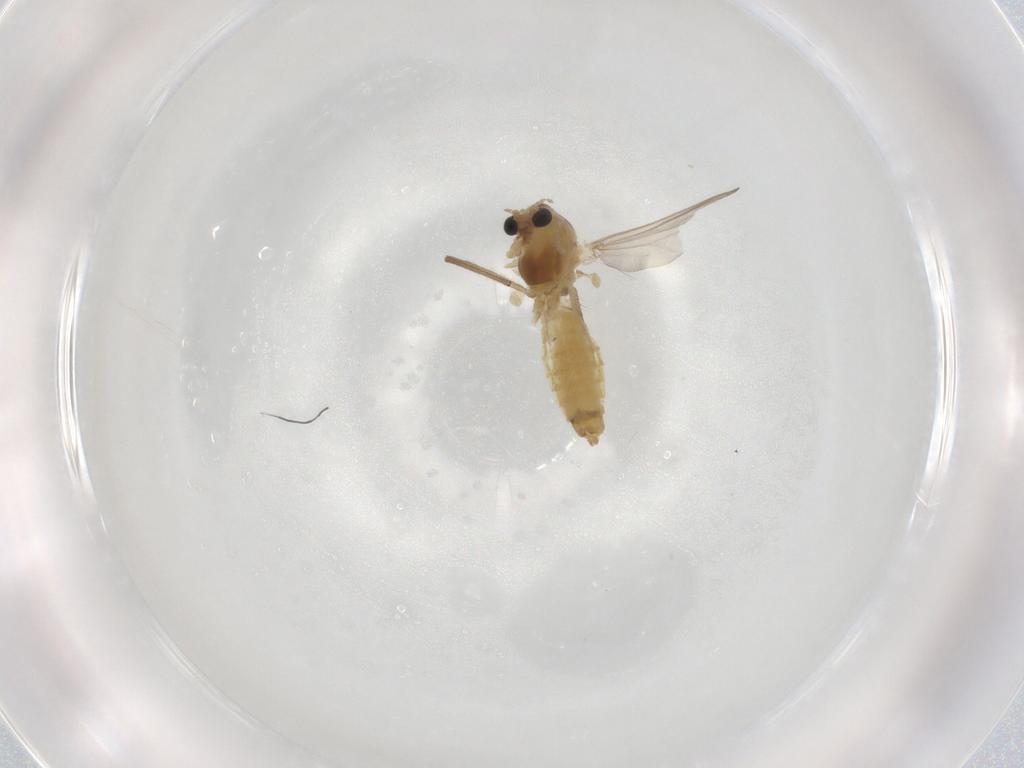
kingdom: Animalia
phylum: Arthropoda
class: Insecta
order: Diptera
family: Chironomidae
